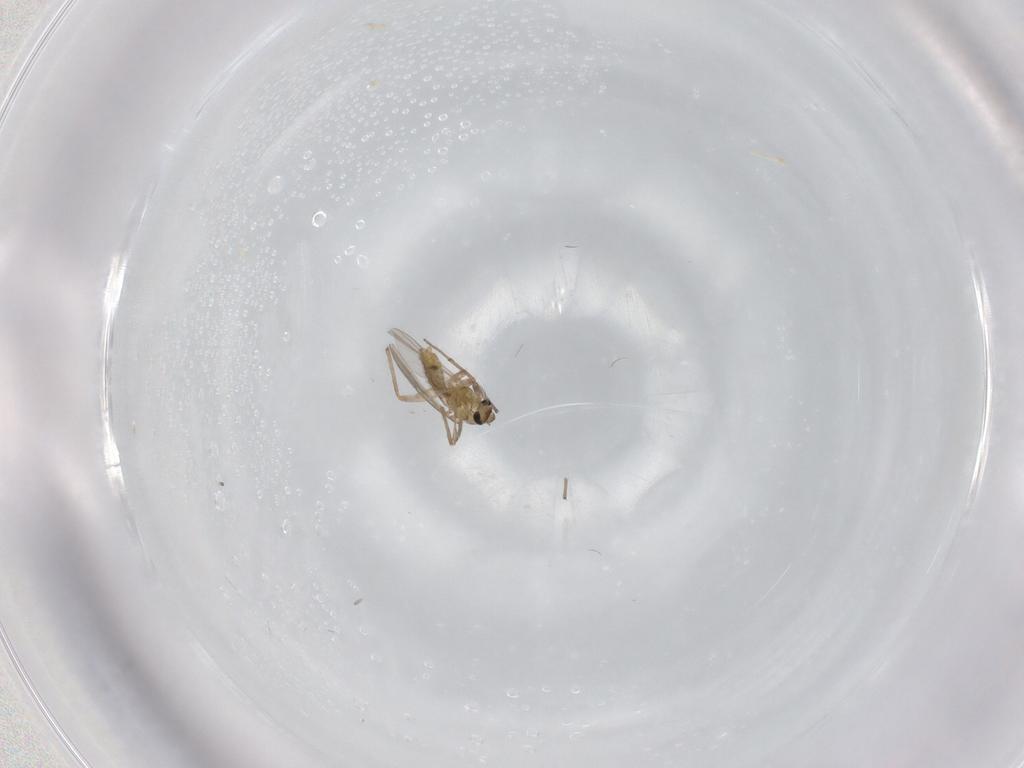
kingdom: Animalia
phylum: Arthropoda
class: Insecta
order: Diptera
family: Chironomidae
